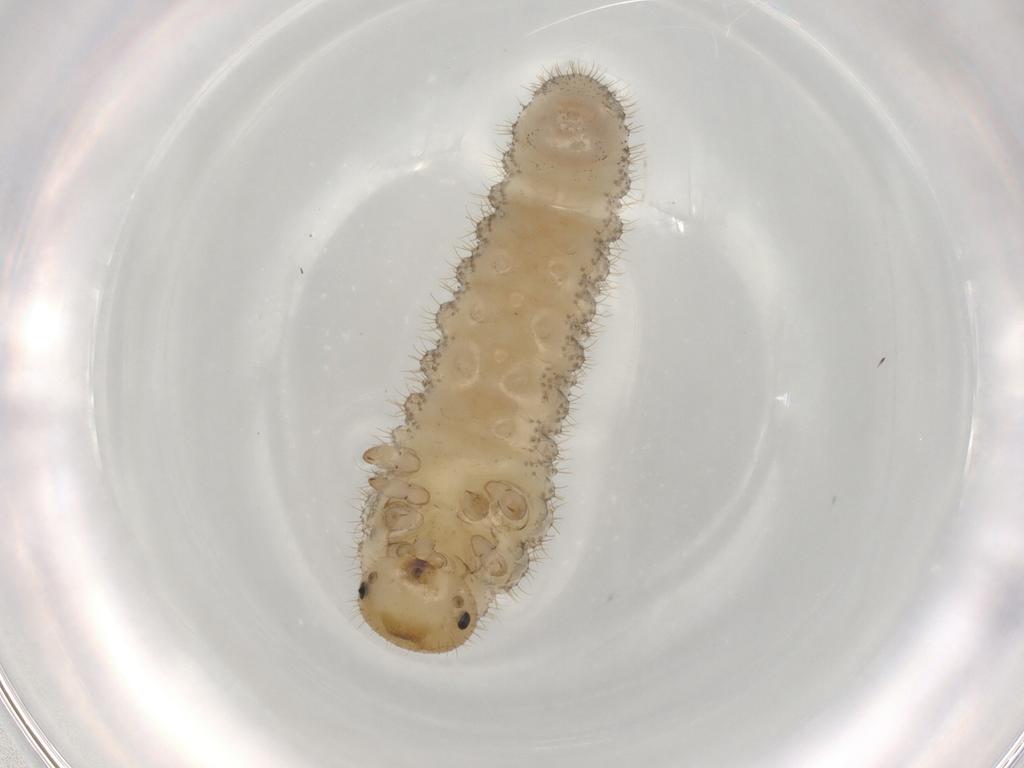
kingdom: Animalia
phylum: Arthropoda
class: Insecta
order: Hymenoptera
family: Tenthredinidae
